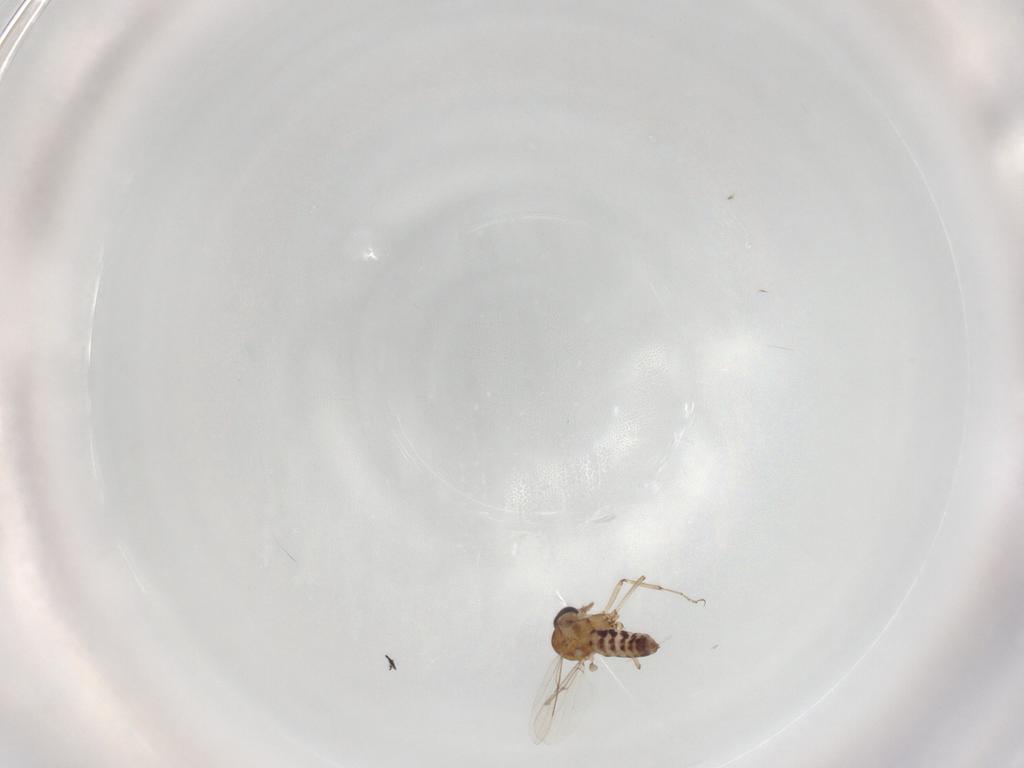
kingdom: Animalia
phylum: Arthropoda
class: Insecta
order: Diptera
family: Ceratopogonidae
